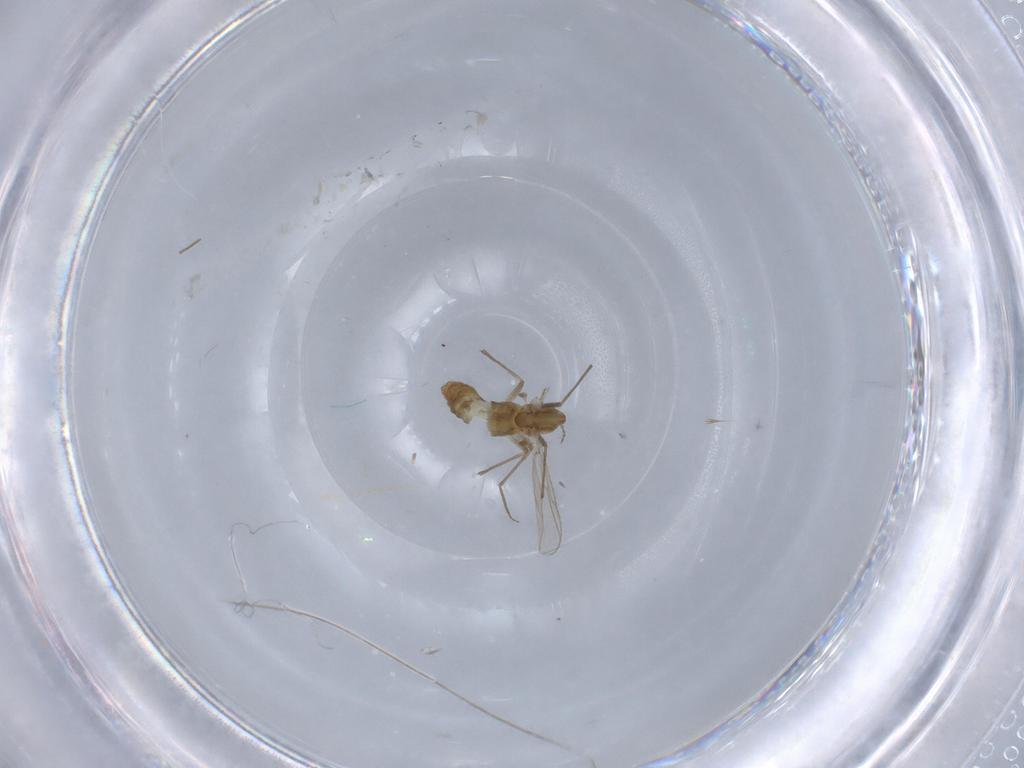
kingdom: Animalia
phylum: Arthropoda
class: Insecta
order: Diptera
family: Chironomidae
